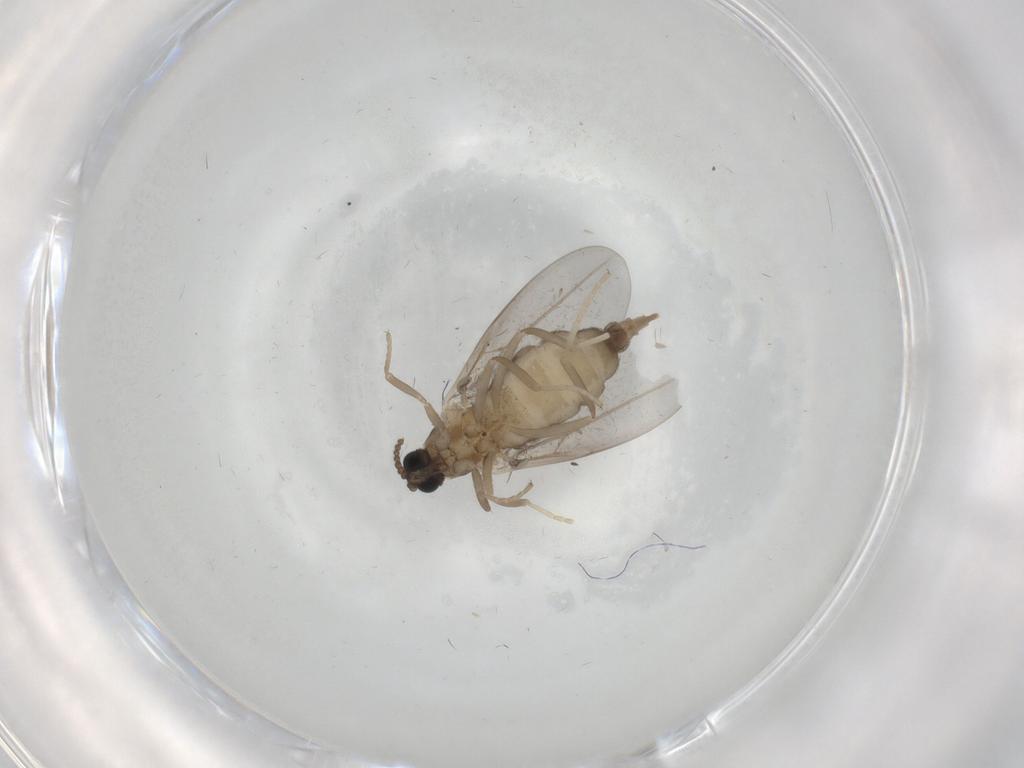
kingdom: Animalia
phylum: Arthropoda
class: Insecta
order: Diptera
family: Cecidomyiidae
